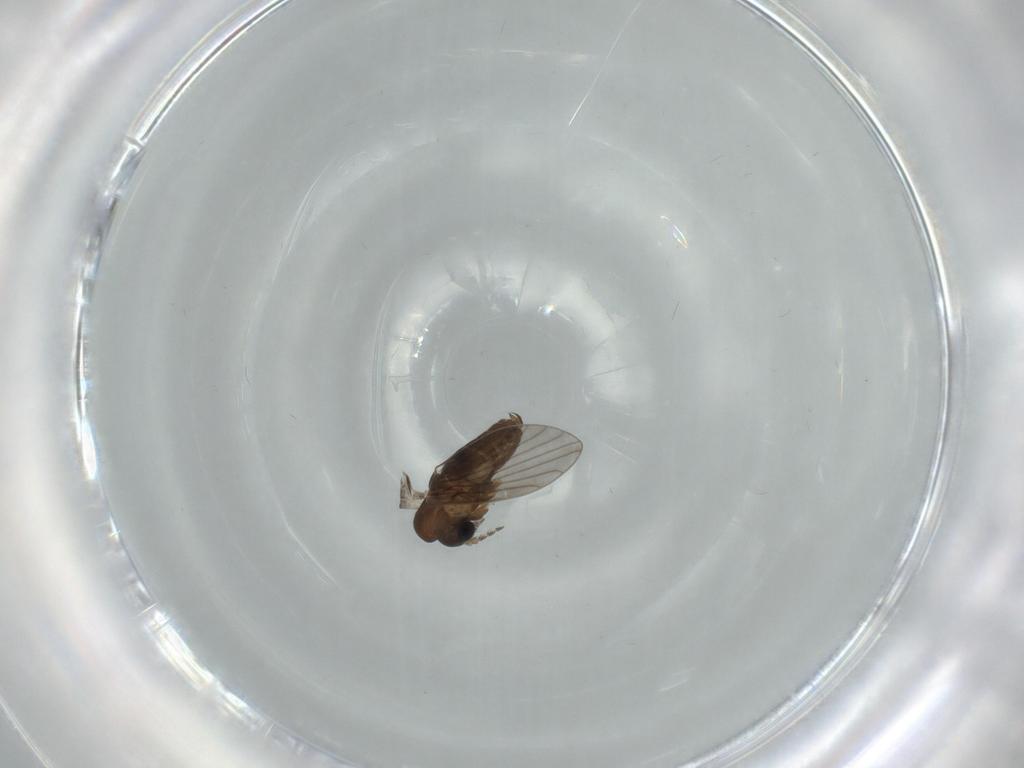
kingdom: Animalia
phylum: Arthropoda
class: Insecta
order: Diptera
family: Psychodidae
